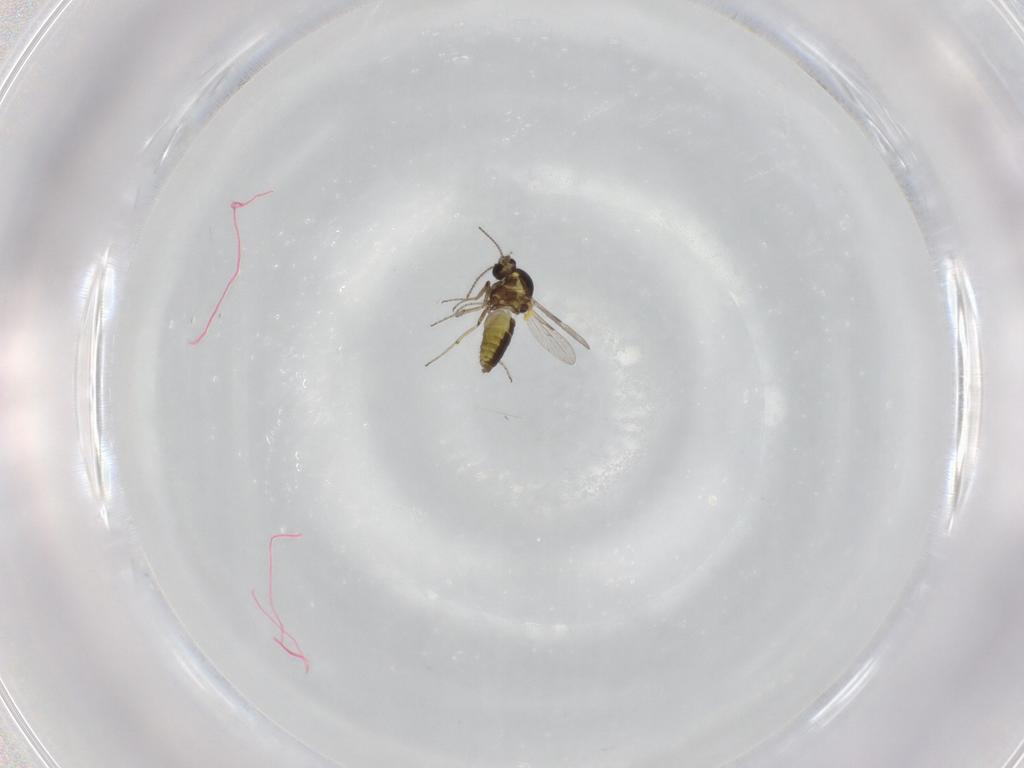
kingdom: Animalia
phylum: Arthropoda
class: Insecta
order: Diptera
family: Ceratopogonidae
